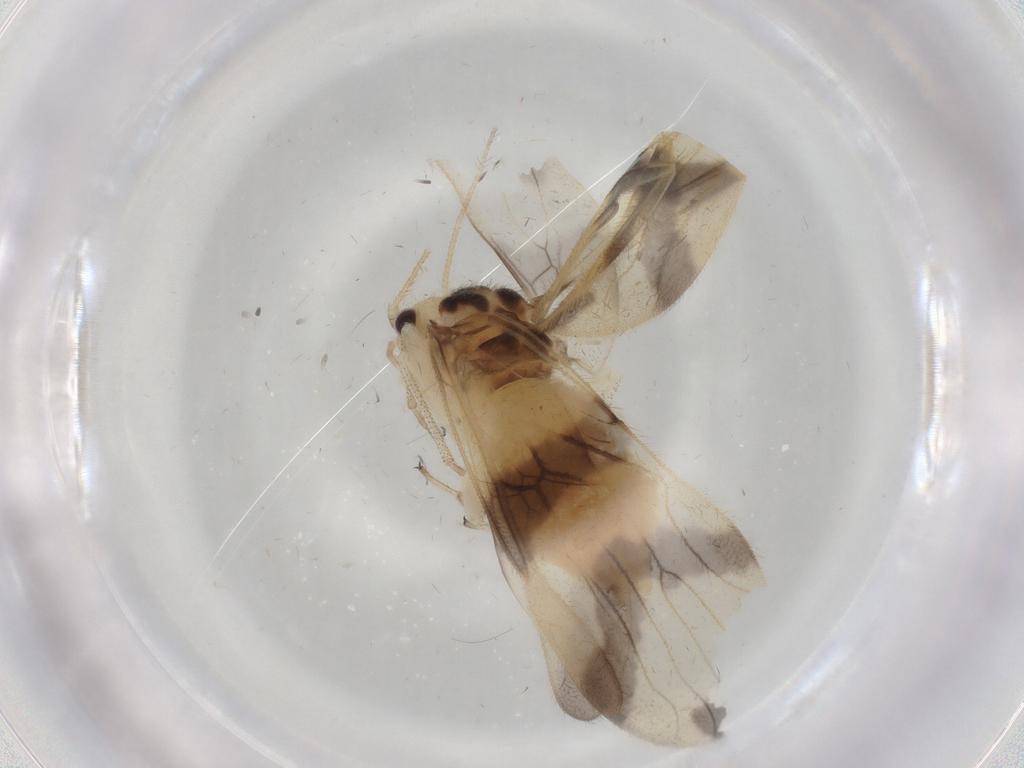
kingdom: Animalia
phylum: Arthropoda
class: Insecta
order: Psocodea
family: Amphipsocidae
